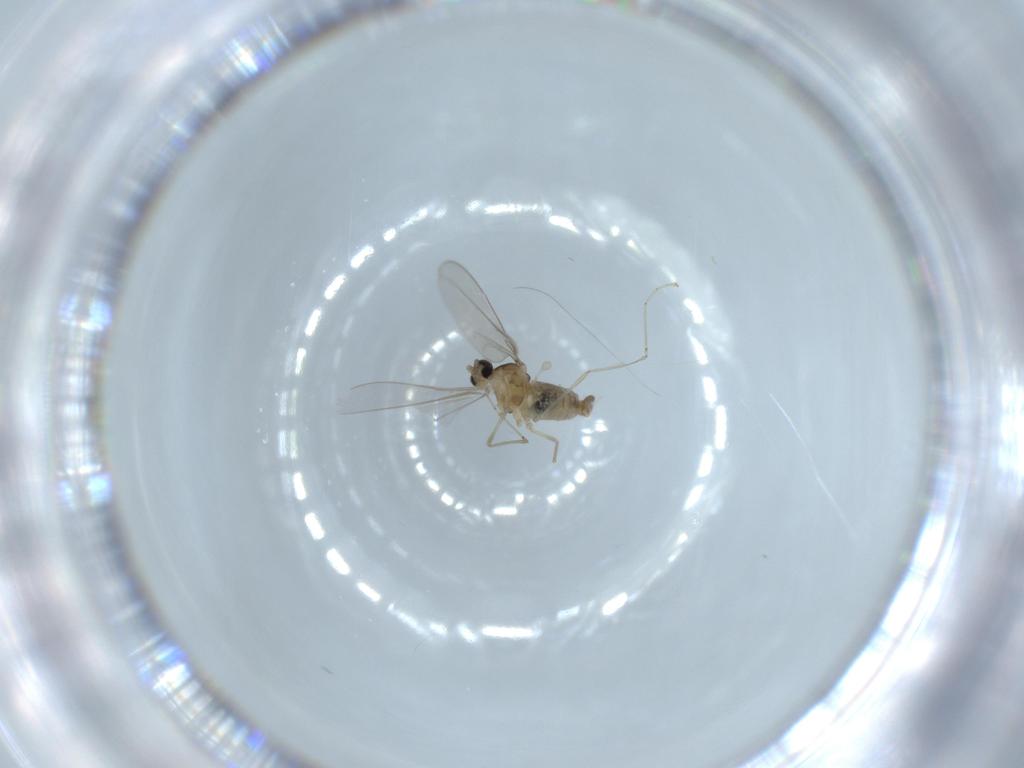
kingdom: Animalia
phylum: Arthropoda
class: Insecta
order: Diptera
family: Cecidomyiidae
